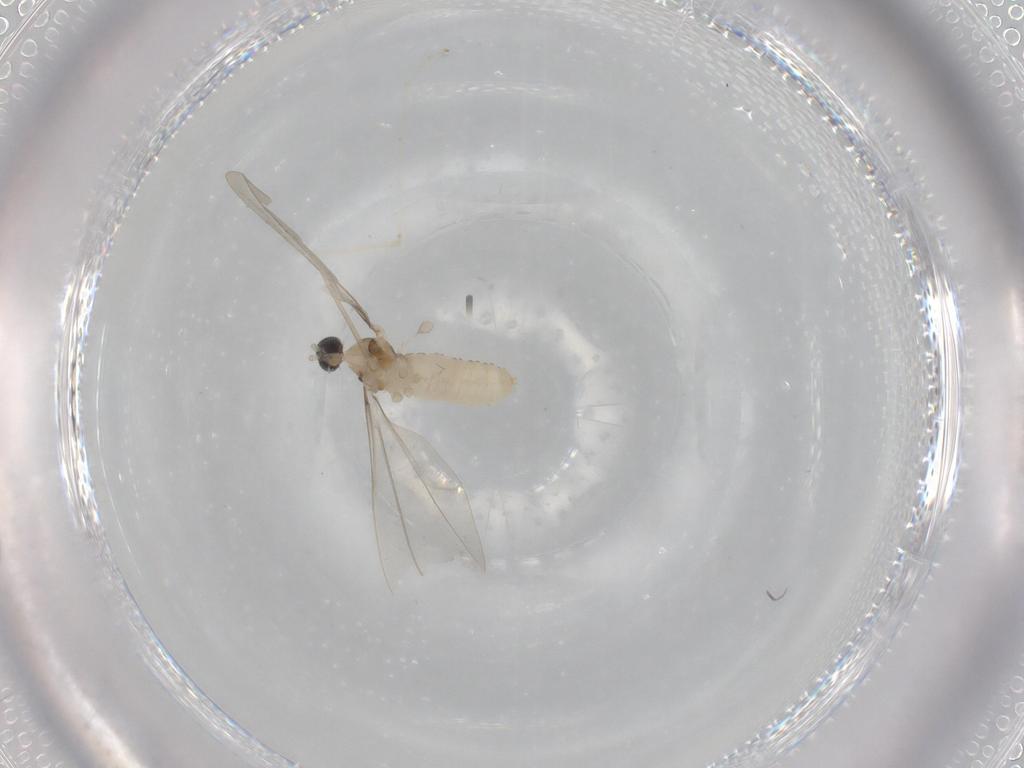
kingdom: Animalia
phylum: Arthropoda
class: Insecta
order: Diptera
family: Cecidomyiidae
